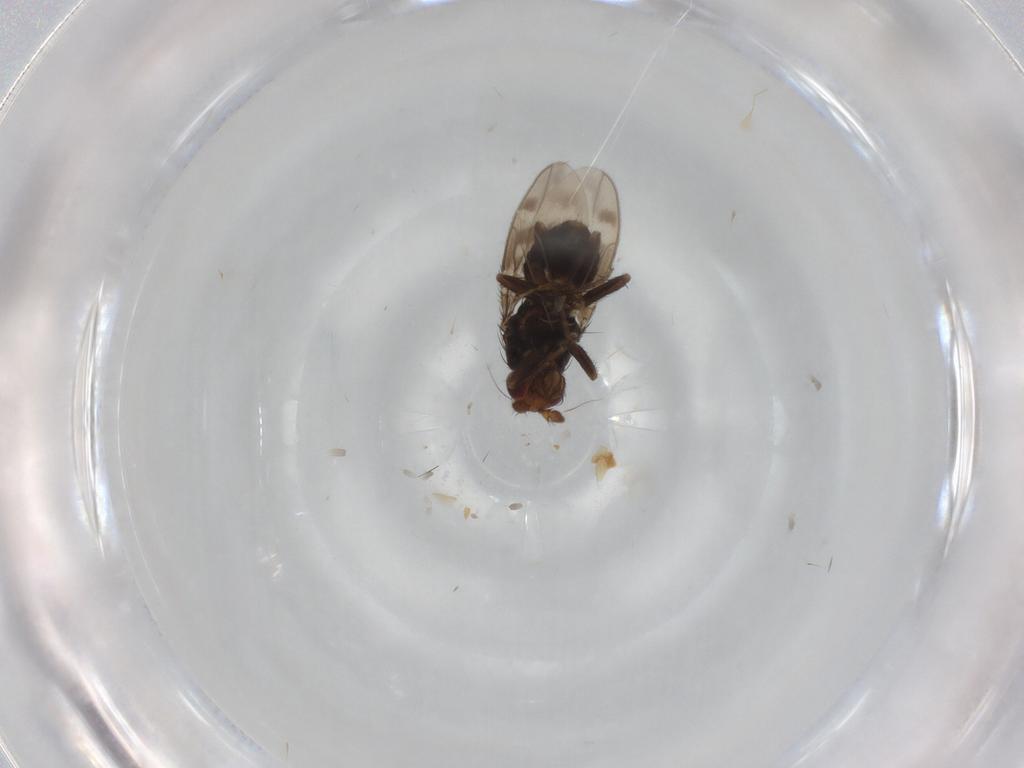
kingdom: Animalia
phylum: Arthropoda
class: Insecta
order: Diptera
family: Sphaeroceridae
